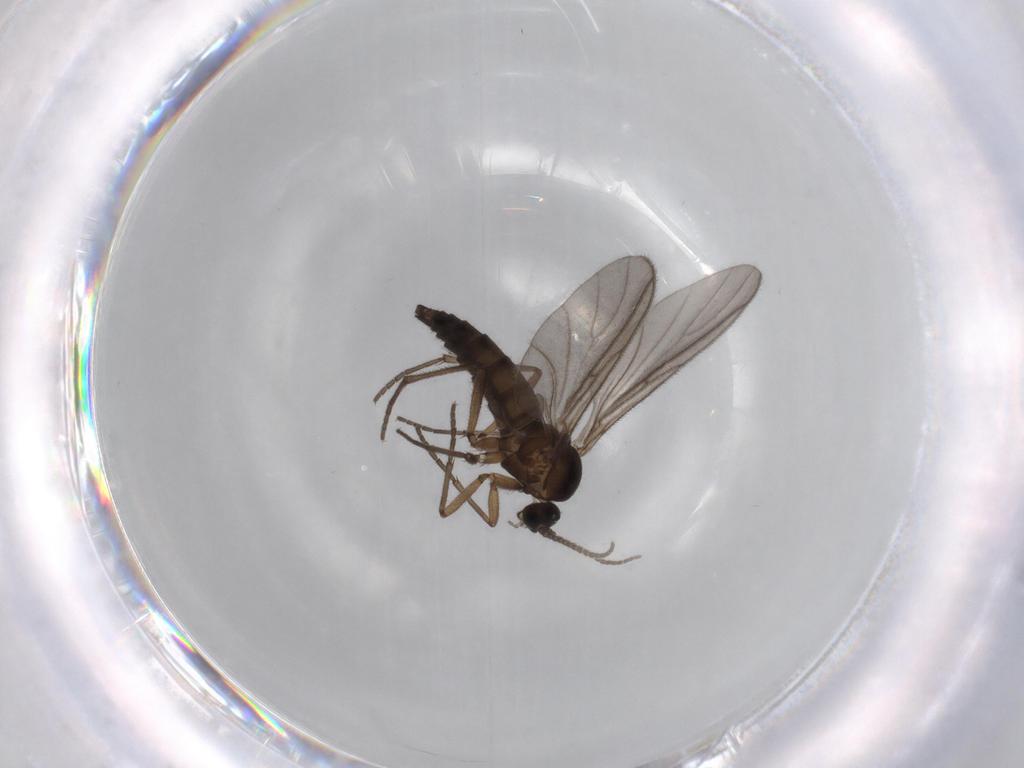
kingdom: Animalia
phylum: Arthropoda
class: Insecta
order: Diptera
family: Sciaridae
